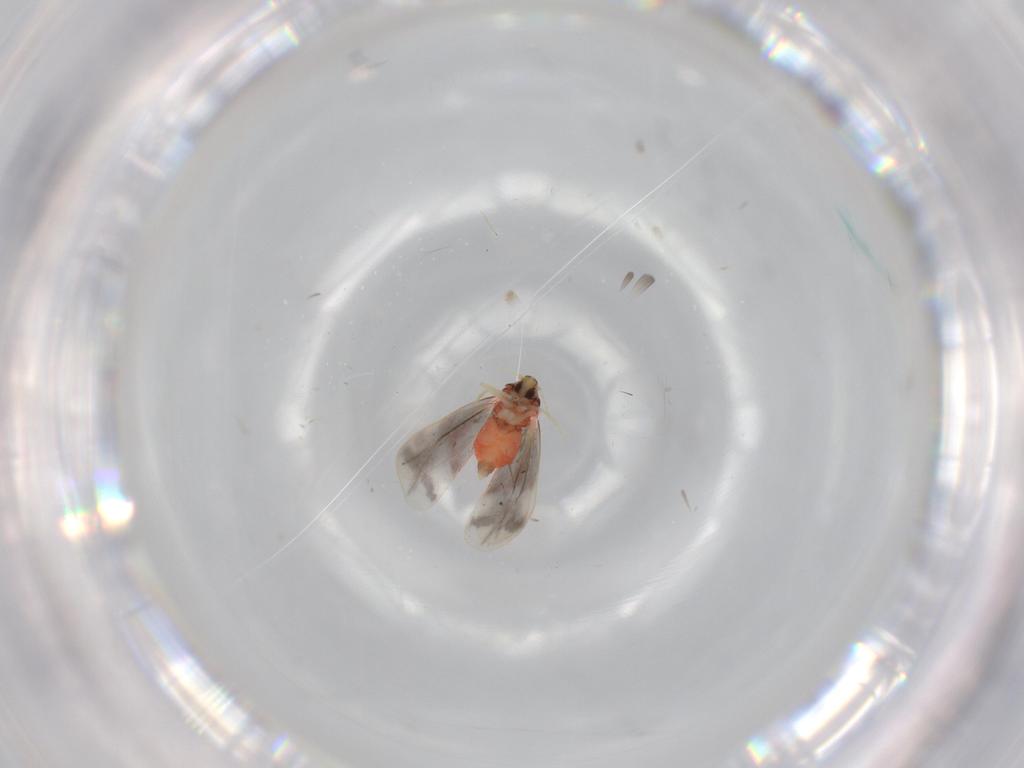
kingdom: Animalia
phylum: Arthropoda
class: Insecta
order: Hemiptera
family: Aleyrodidae
